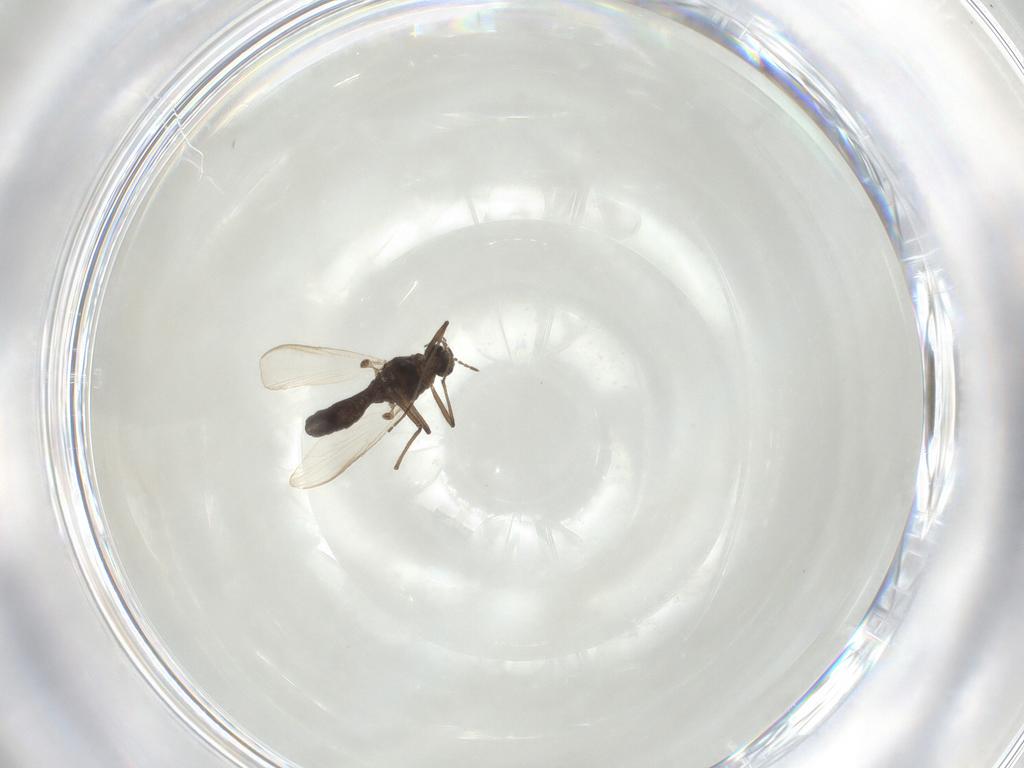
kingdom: Animalia
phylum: Arthropoda
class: Insecta
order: Diptera
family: Chironomidae
